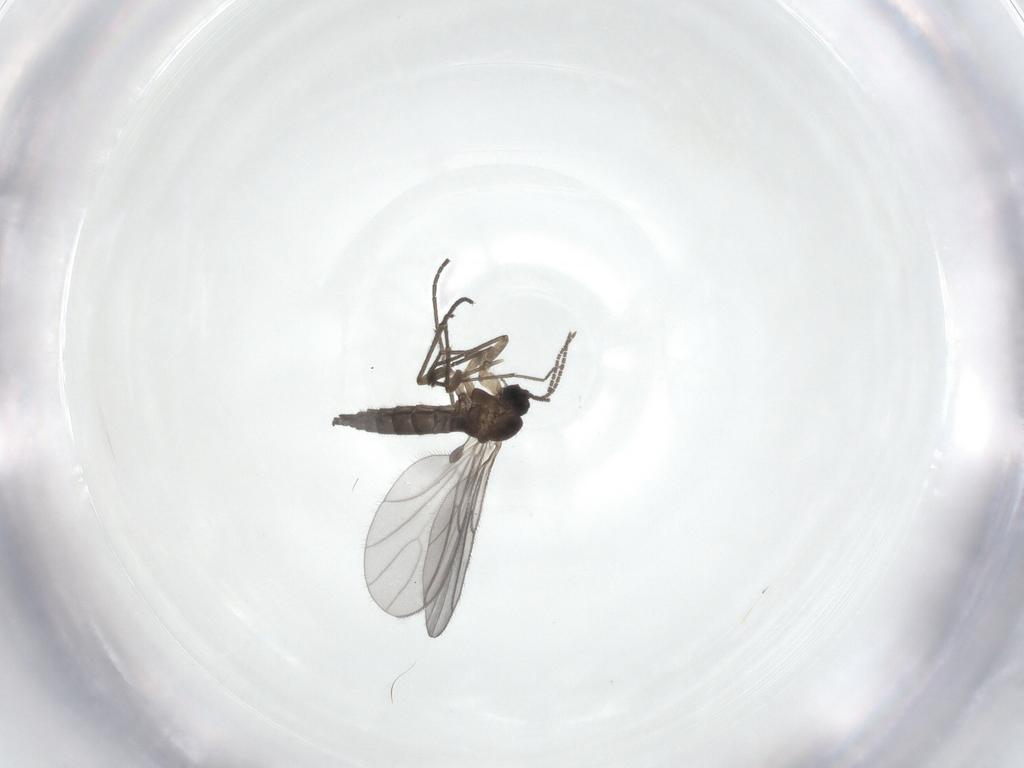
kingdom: Animalia
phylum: Arthropoda
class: Insecta
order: Diptera
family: Sciaridae
